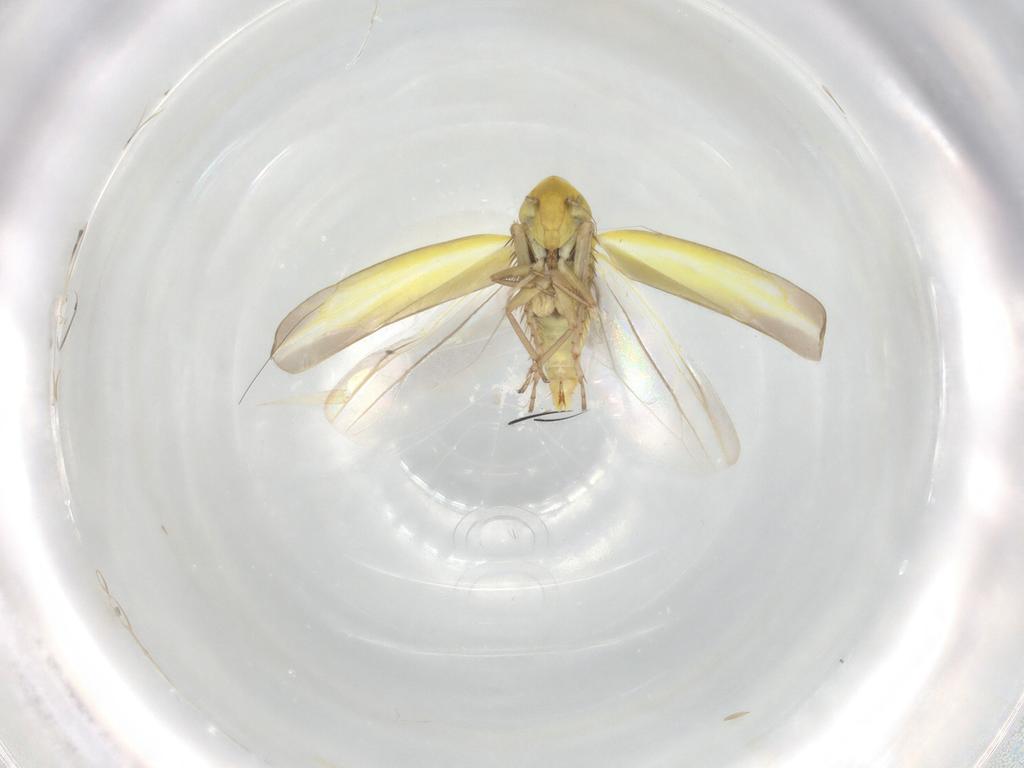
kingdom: Animalia
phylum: Arthropoda
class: Insecta
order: Hemiptera
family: Cicadellidae
